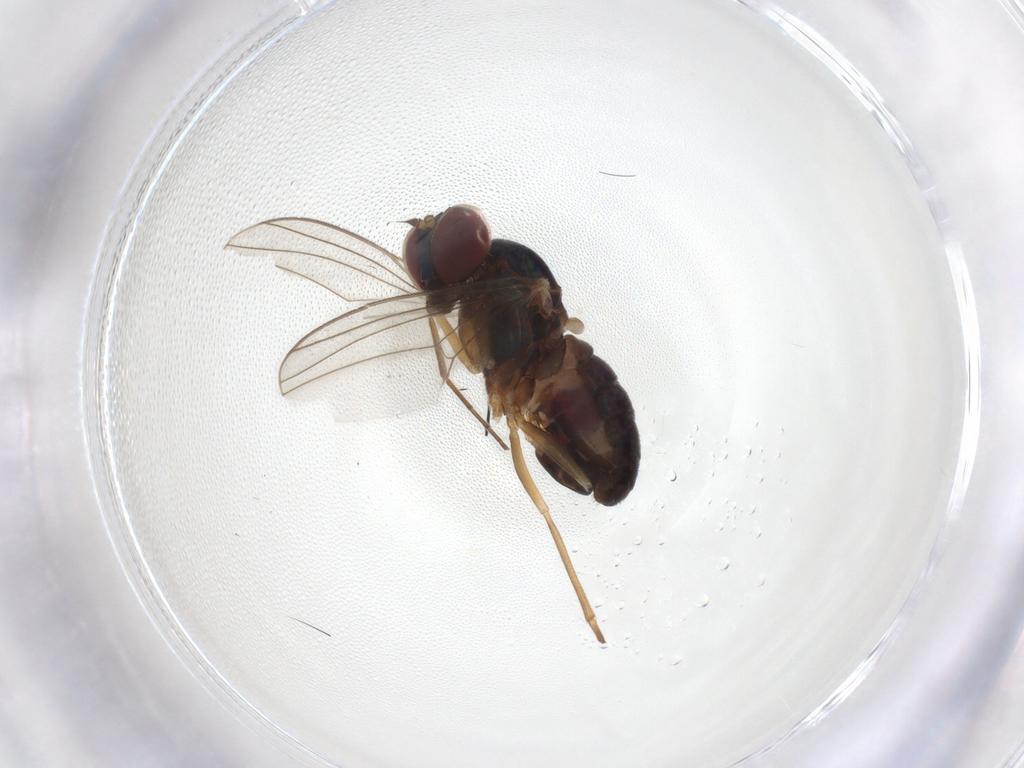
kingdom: Animalia
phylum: Arthropoda
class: Insecta
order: Diptera
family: Dolichopodidae
